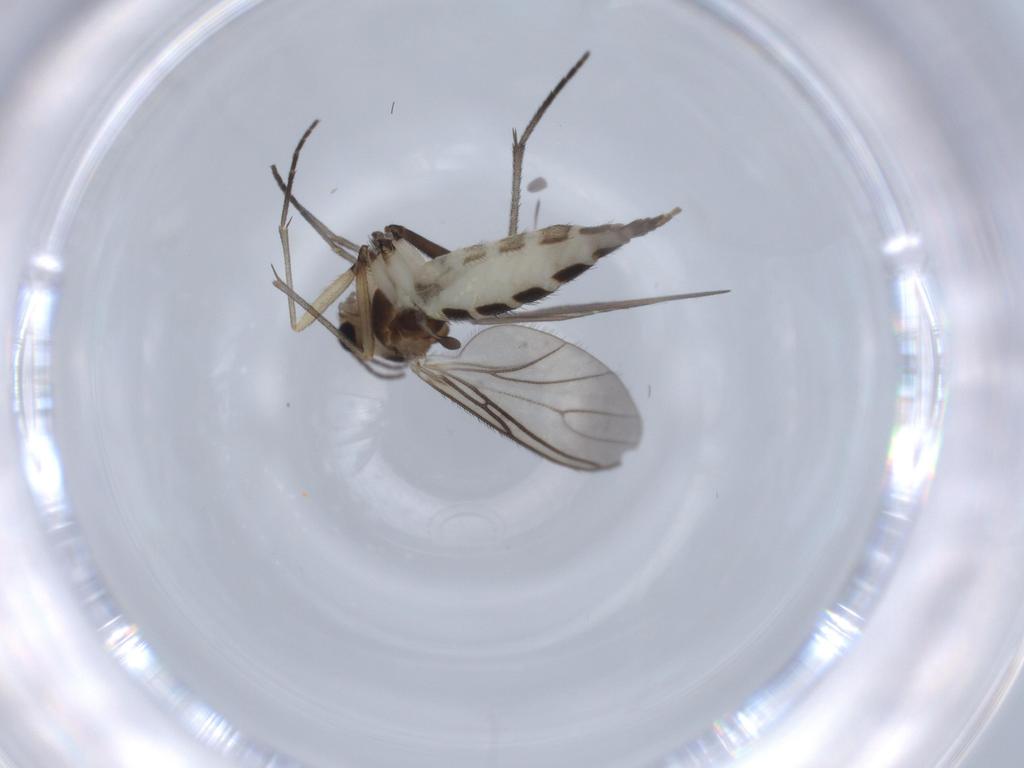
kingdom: Animalia
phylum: Arthropoda
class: Insecta
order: Diptera
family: Sciaridae
